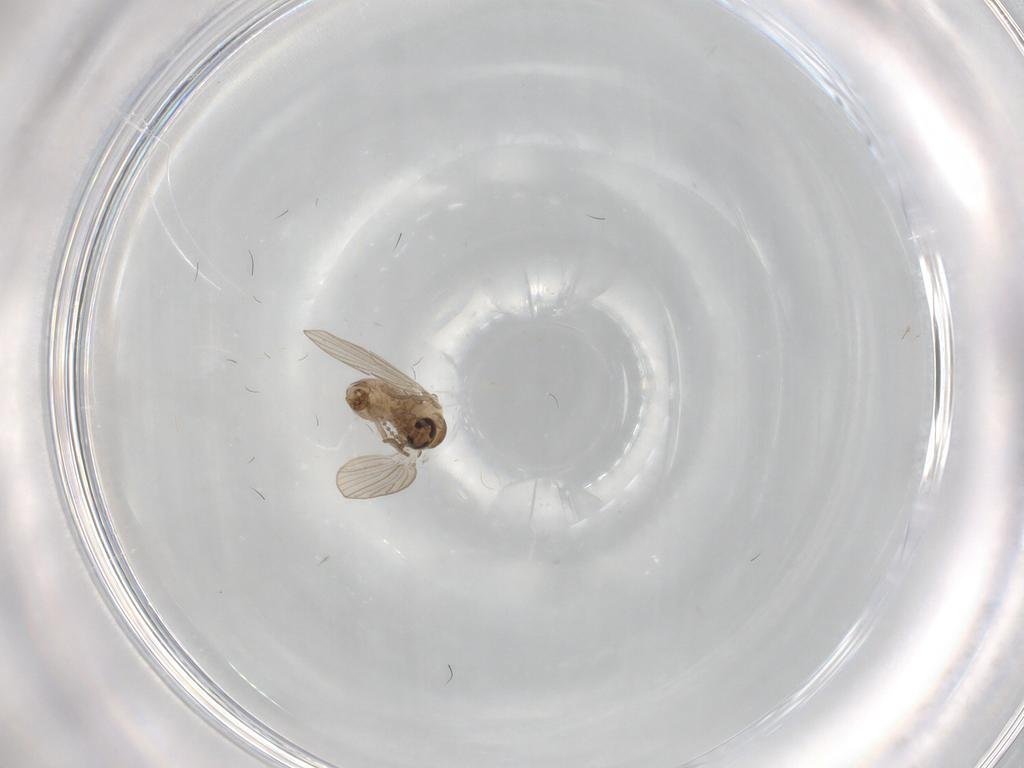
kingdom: Animalia
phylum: Arthropoda
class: Insecta
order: Diptera
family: Psychodidae
